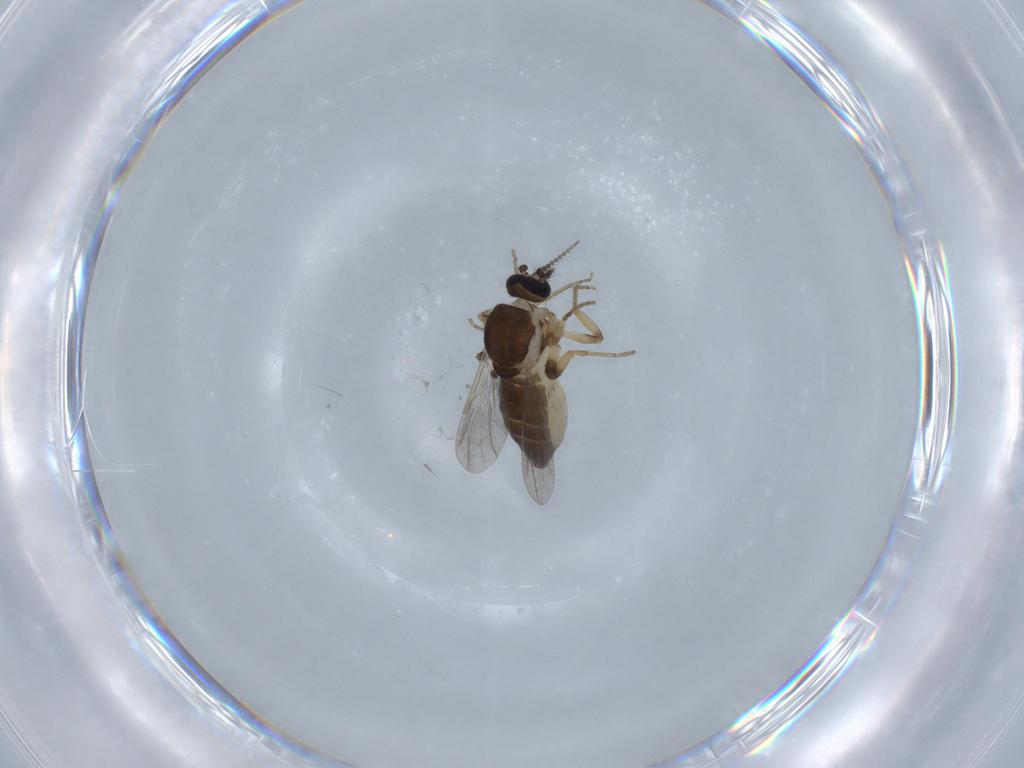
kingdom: Animalia
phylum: Arthropoda
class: Insecta
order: Diptera
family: Ceratopogonidae
